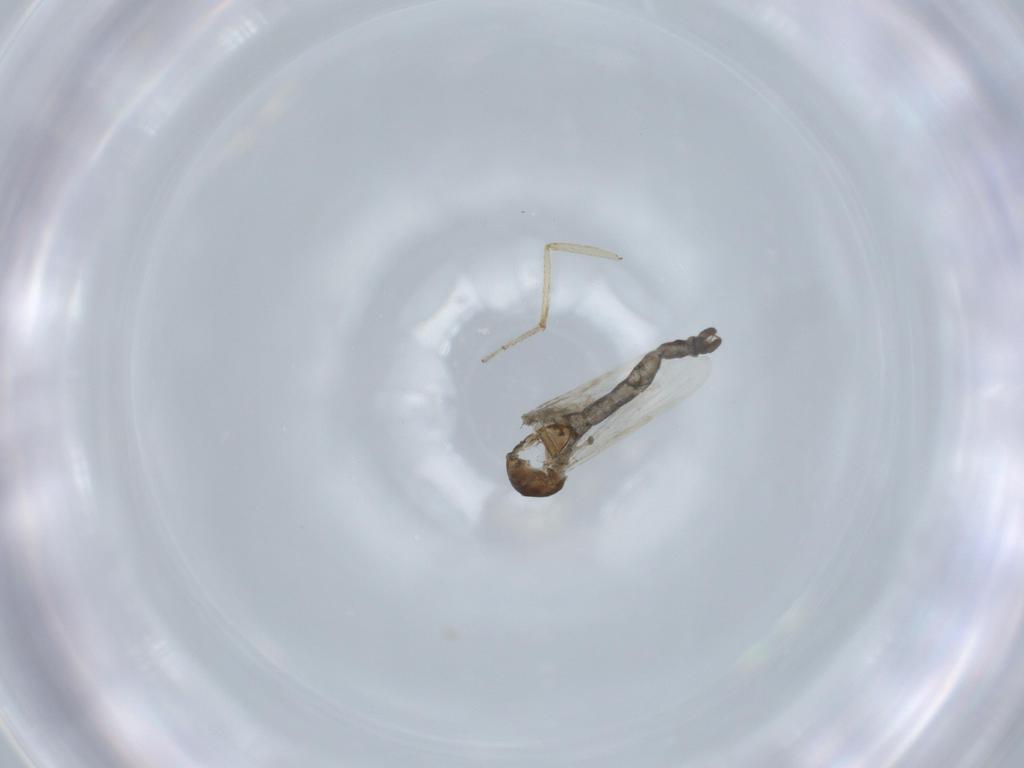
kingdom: Animalia
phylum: Arthropoda
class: Insecta
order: Diptera
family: Ceratopogonidae
